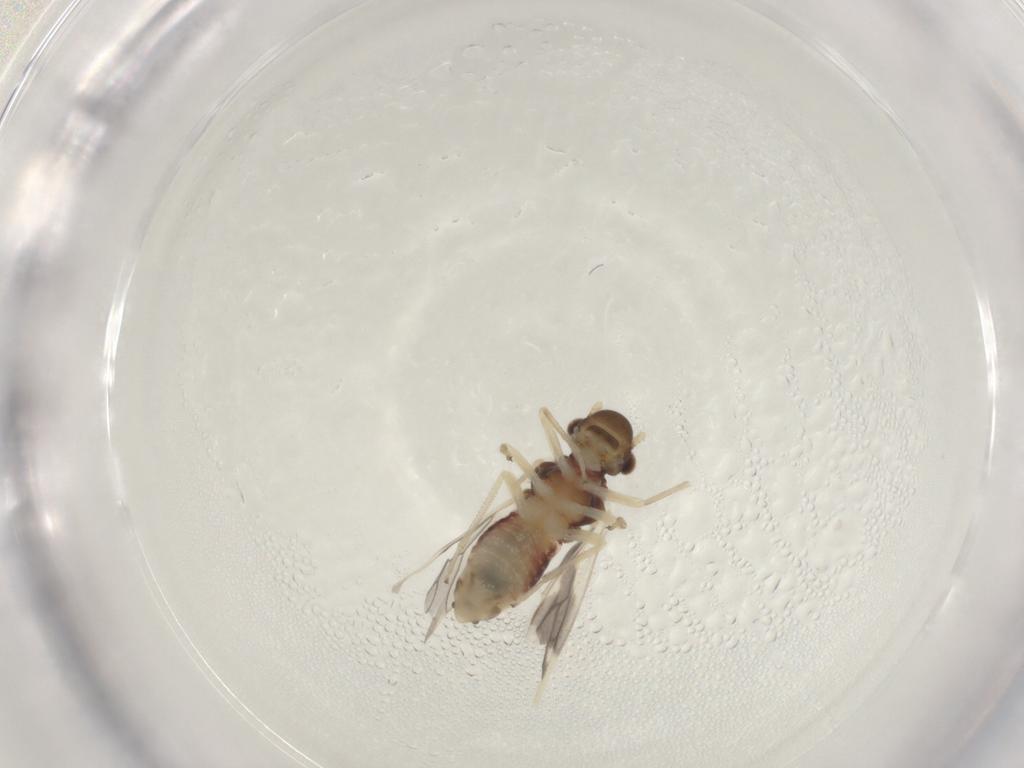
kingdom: Animalia
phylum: Arthropoda
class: Insecta
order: Psocodea
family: Caeciliusidae
